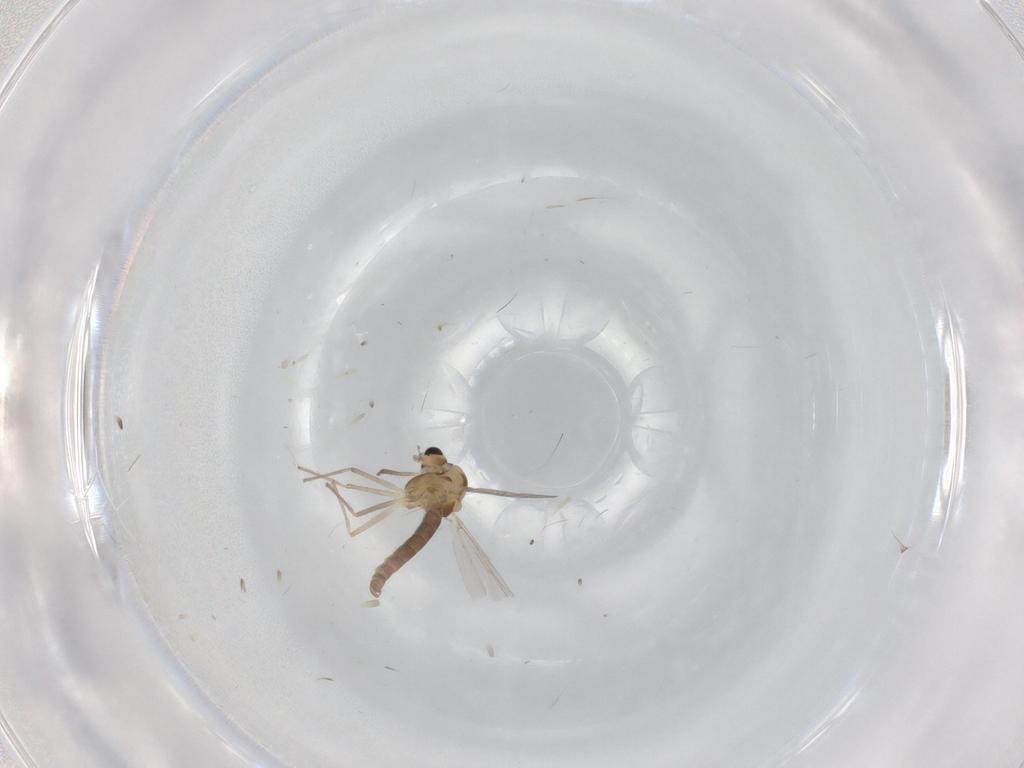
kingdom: Animalia
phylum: Arthropoda
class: Insecta
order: Diptera
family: Chironomidae
